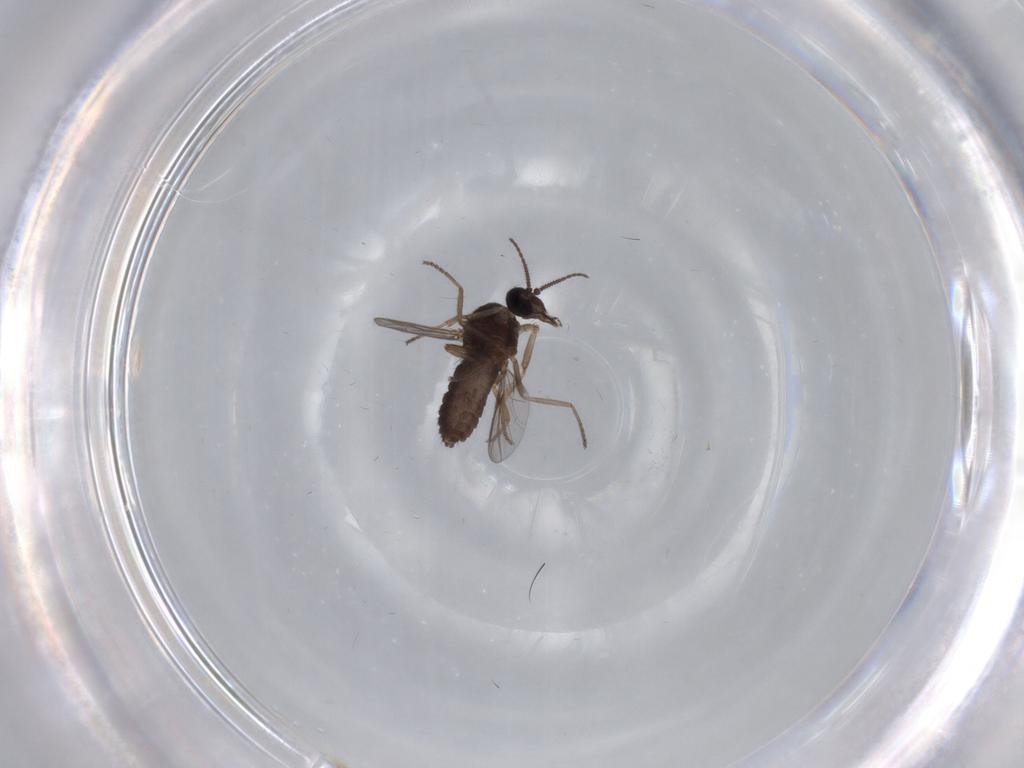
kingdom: Animalia
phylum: Arthropoda
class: Insecta
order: Diptera
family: Ceratopogonidae
